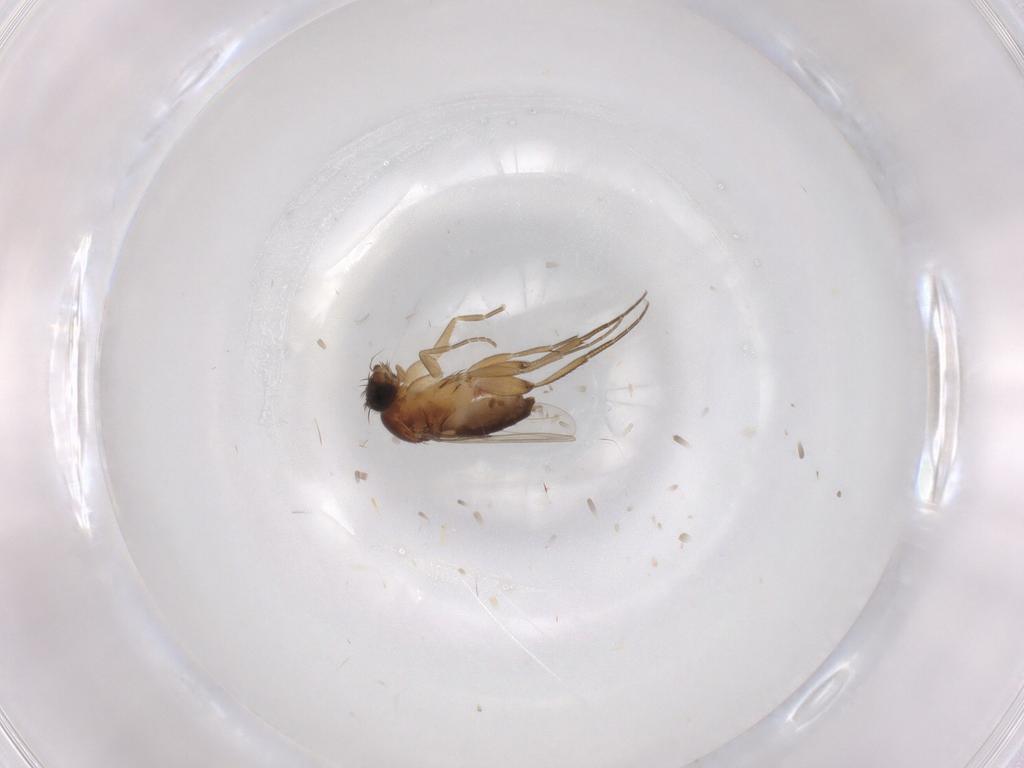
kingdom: Animalia
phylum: Arthropoda
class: Insecta
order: Diptera
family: Phoridae
